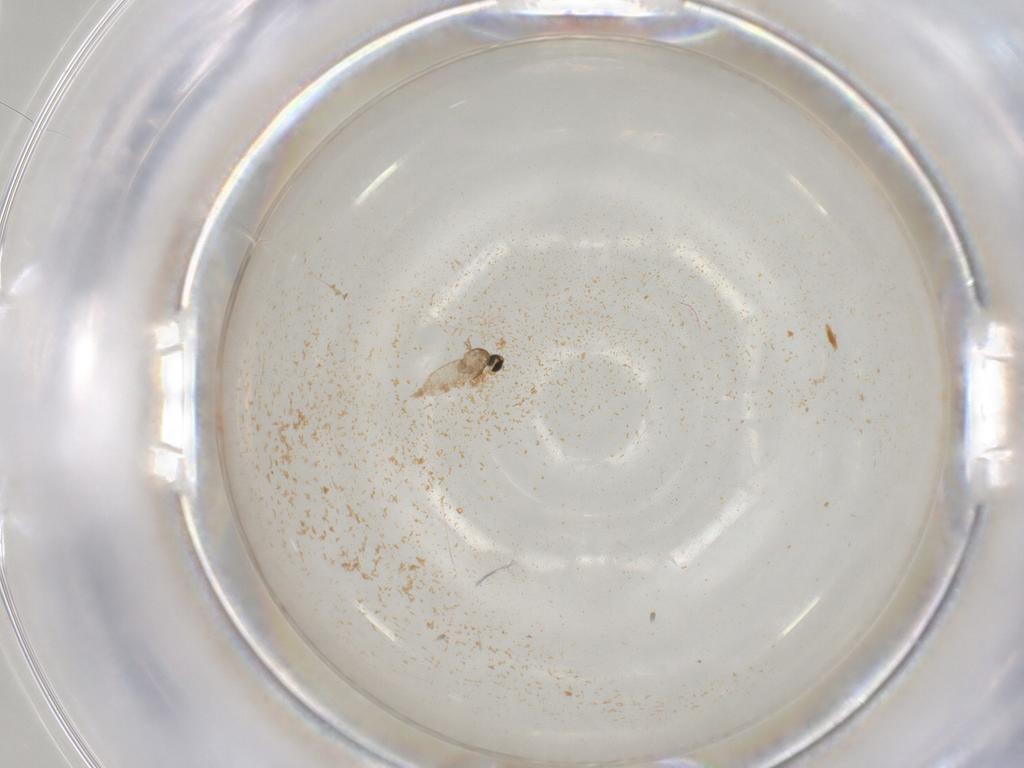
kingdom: Animalia
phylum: Arthropoda
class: Insecta
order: Diptera
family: Cecidomyiidae
